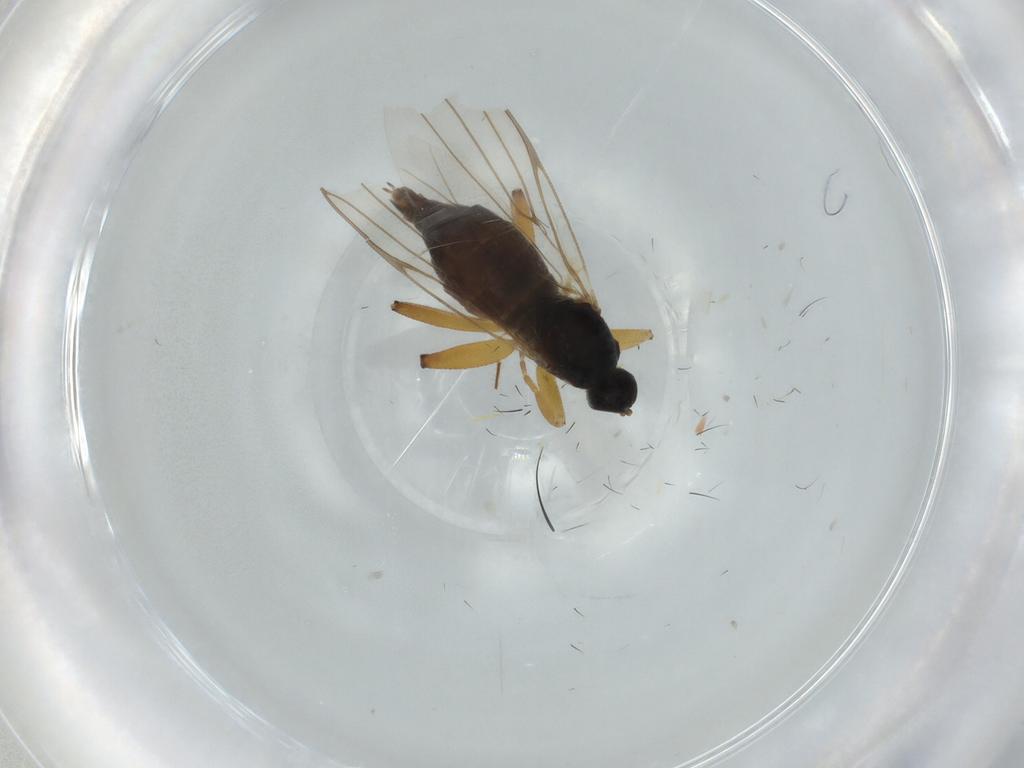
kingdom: Animalia
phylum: Arthropoda
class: Insecta
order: Diptera
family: Hybotidae
